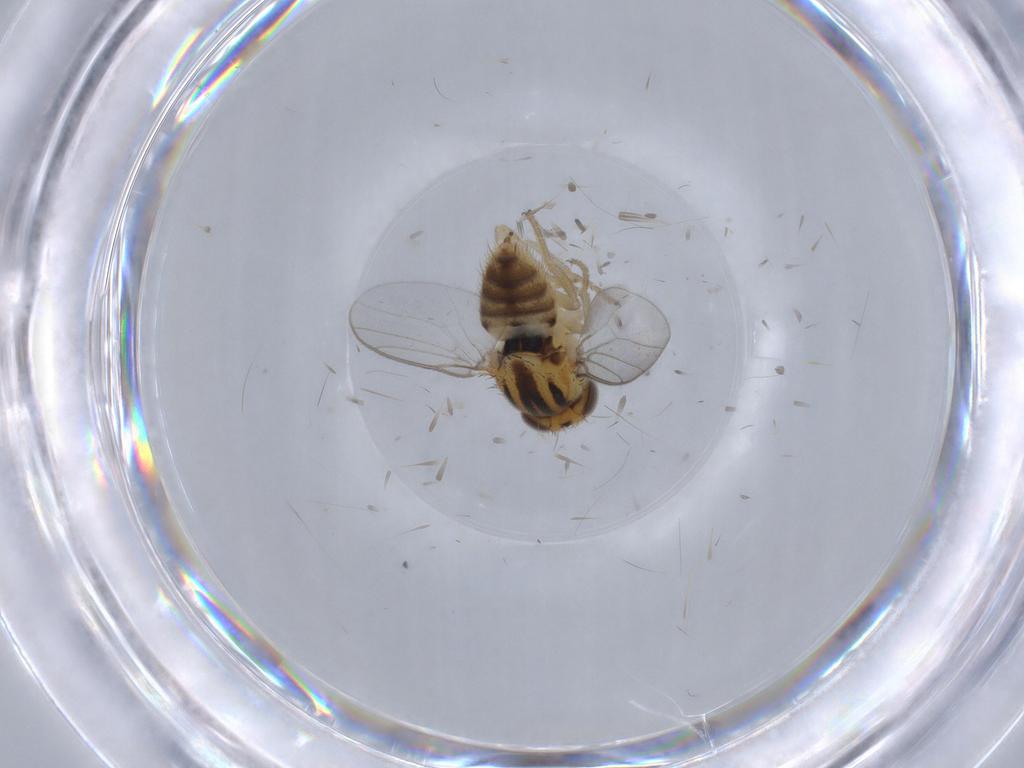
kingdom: Animalia
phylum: Arthropoda
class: Insecta
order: Diptera
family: Chloropidae
